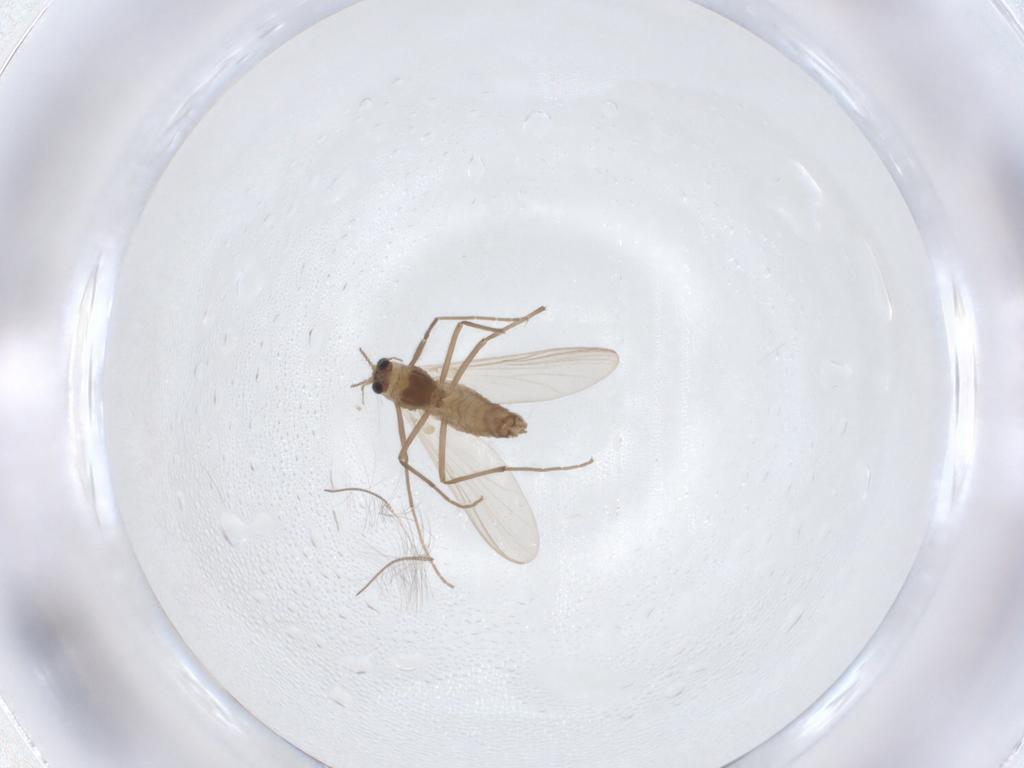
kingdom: Animalia
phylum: Arthropoda
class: Insecta
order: Diptera
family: Chironomidae
